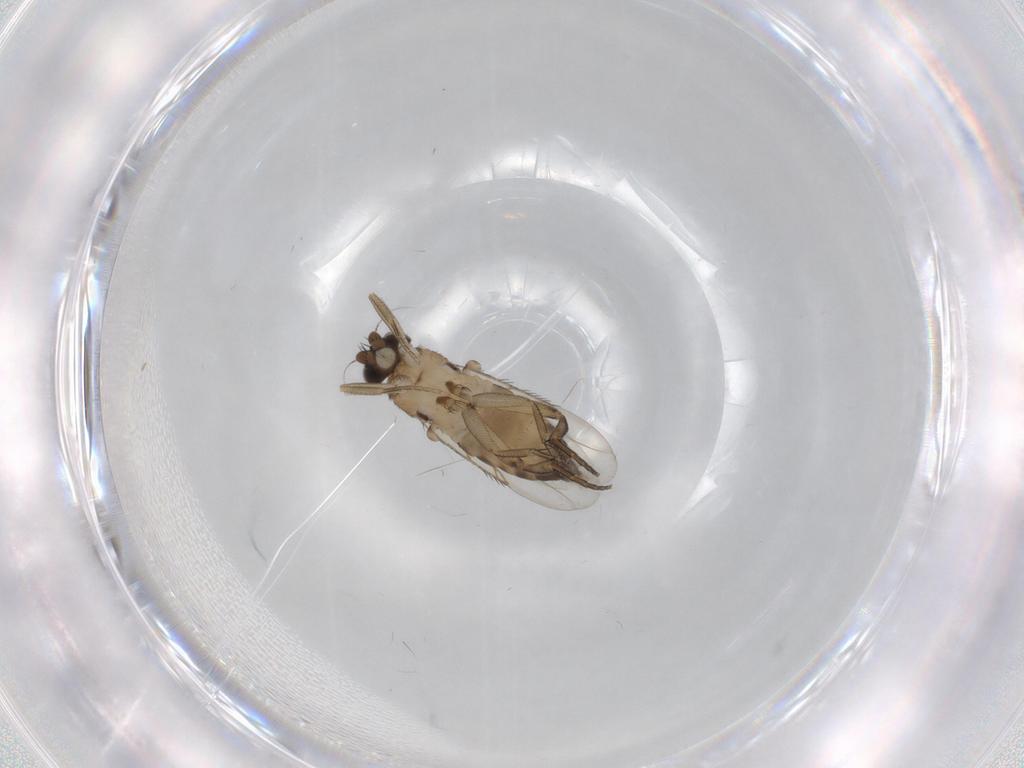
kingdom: Animalia
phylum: Arthropoda
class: Insecta
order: Diptera
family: Phoridae
